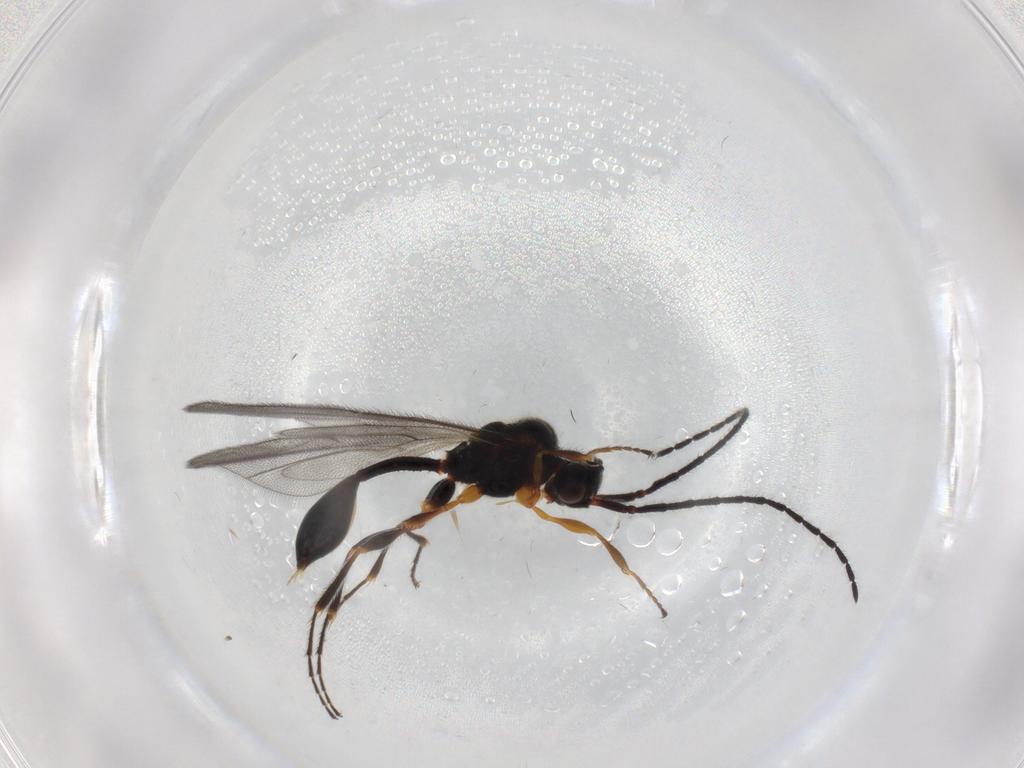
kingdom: Animalia
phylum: Arthropoda
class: Insecta
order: Hymenoptera
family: Diapriidae
